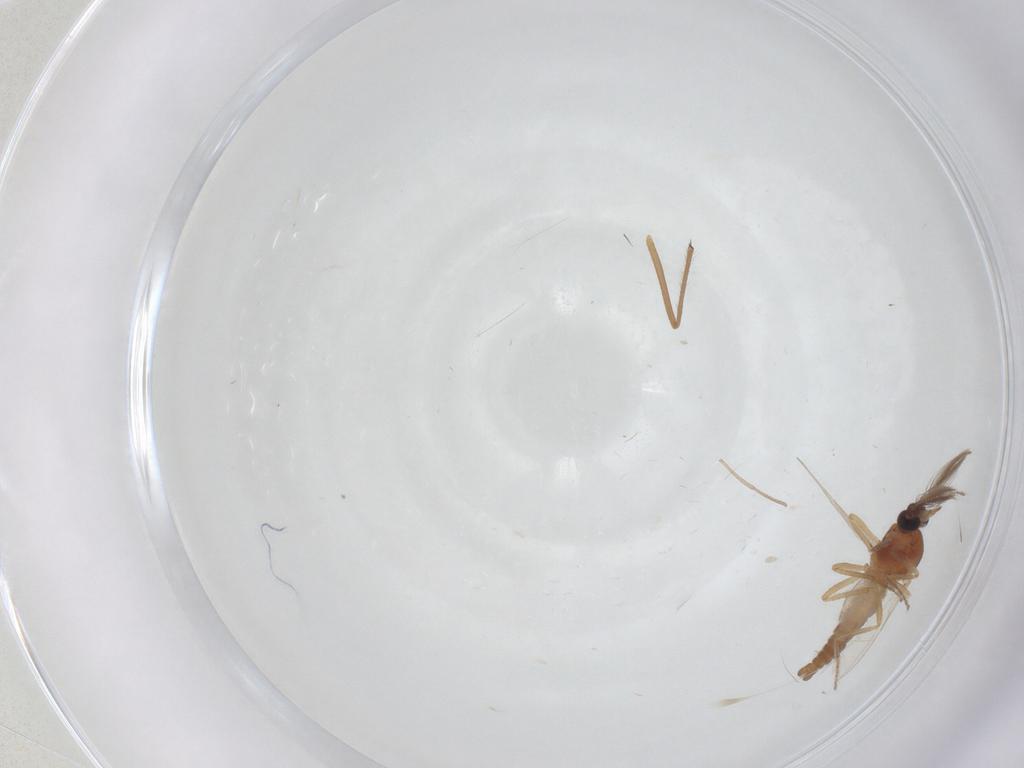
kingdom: Animalia
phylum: Arthropoda
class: Insecta
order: Diptera
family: Ceratopogonidae
